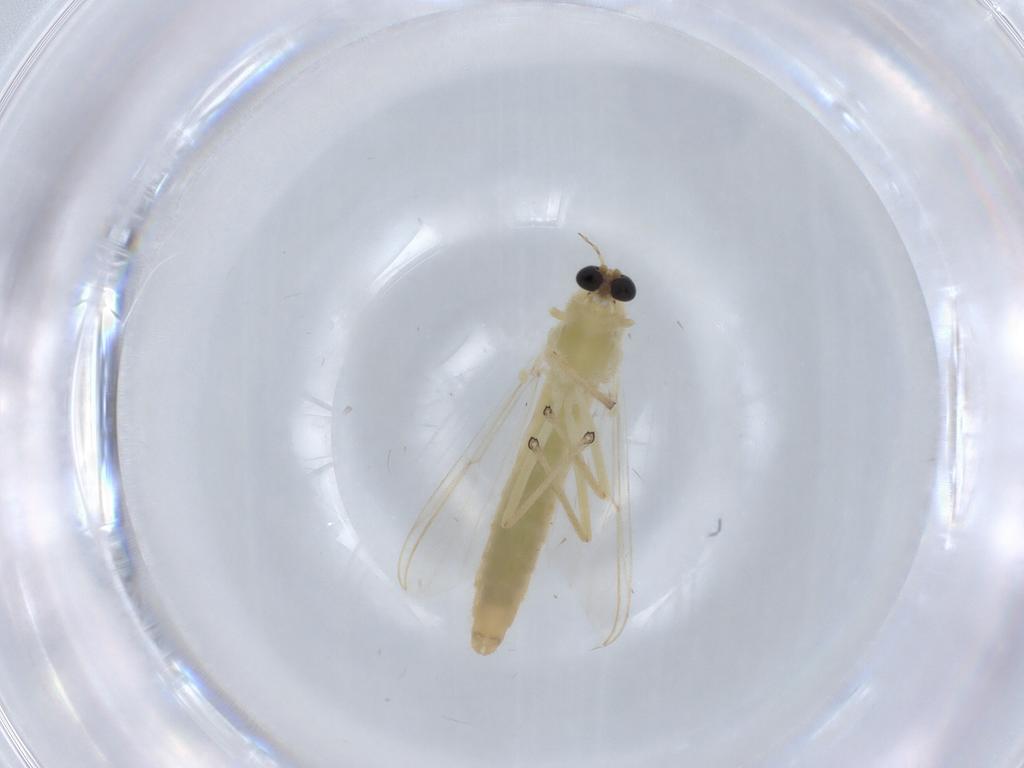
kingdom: Animalia
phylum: Arthropoda
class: Insecta
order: Diptera
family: Chironomidae
